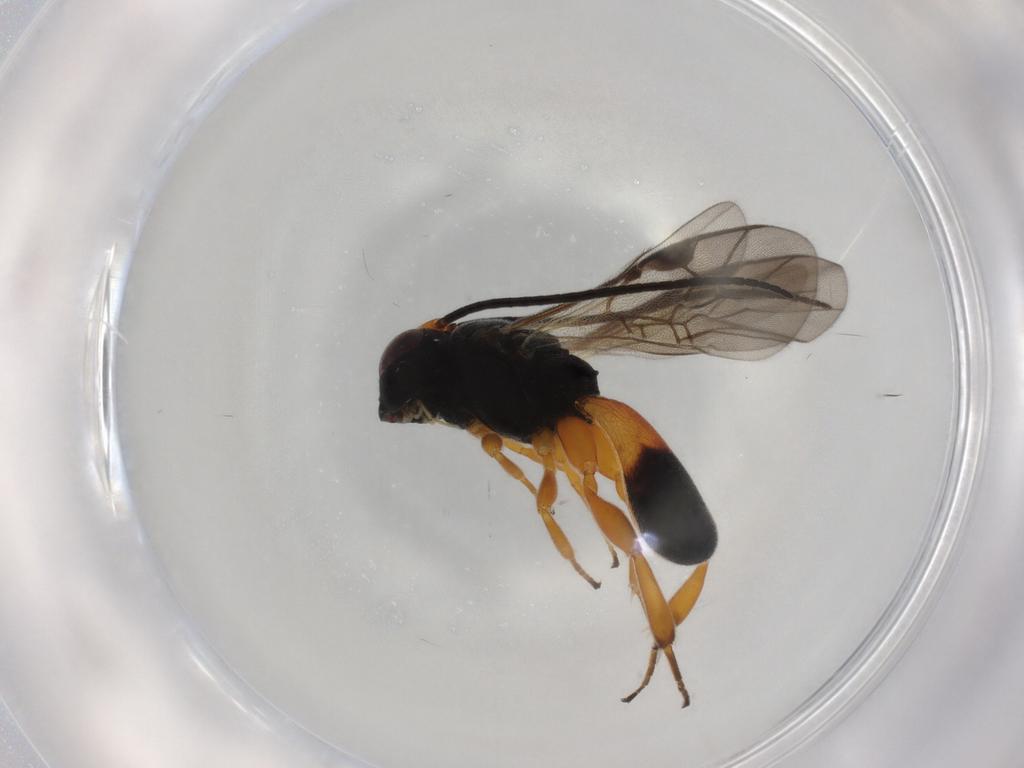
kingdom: Animalia
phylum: Arthropoda
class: Insecta
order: Hymenoptera
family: Braconidae
